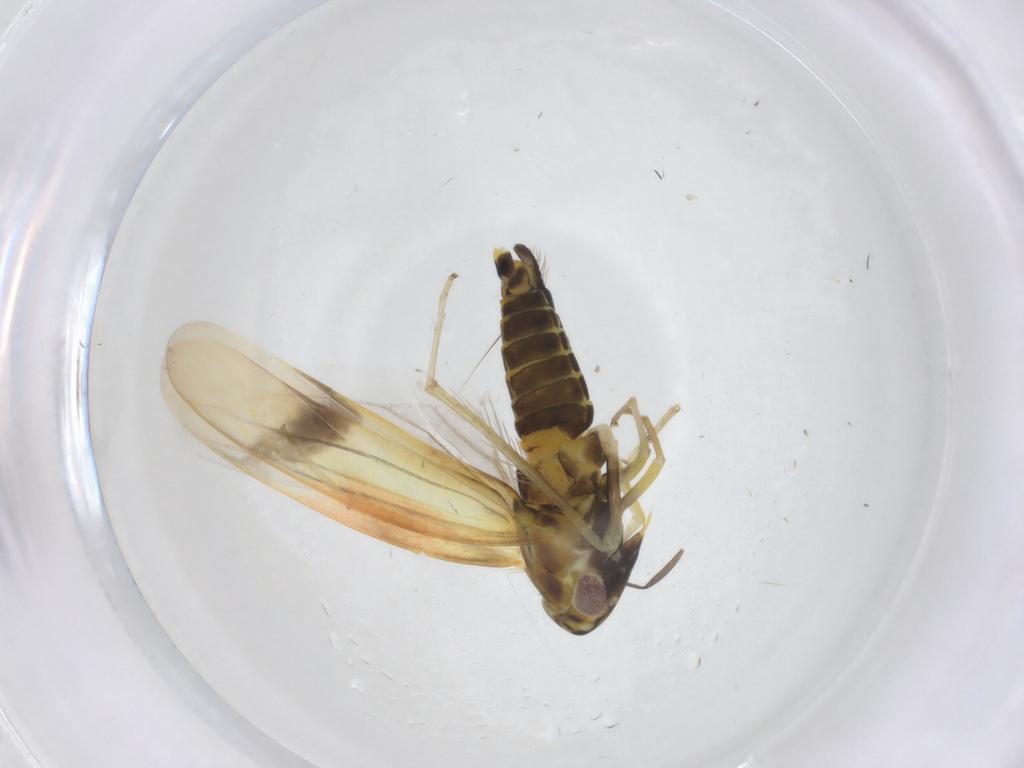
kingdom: Animalia
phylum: Arthropoda
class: Insecta
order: Hemiptera
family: Cicadellidae
